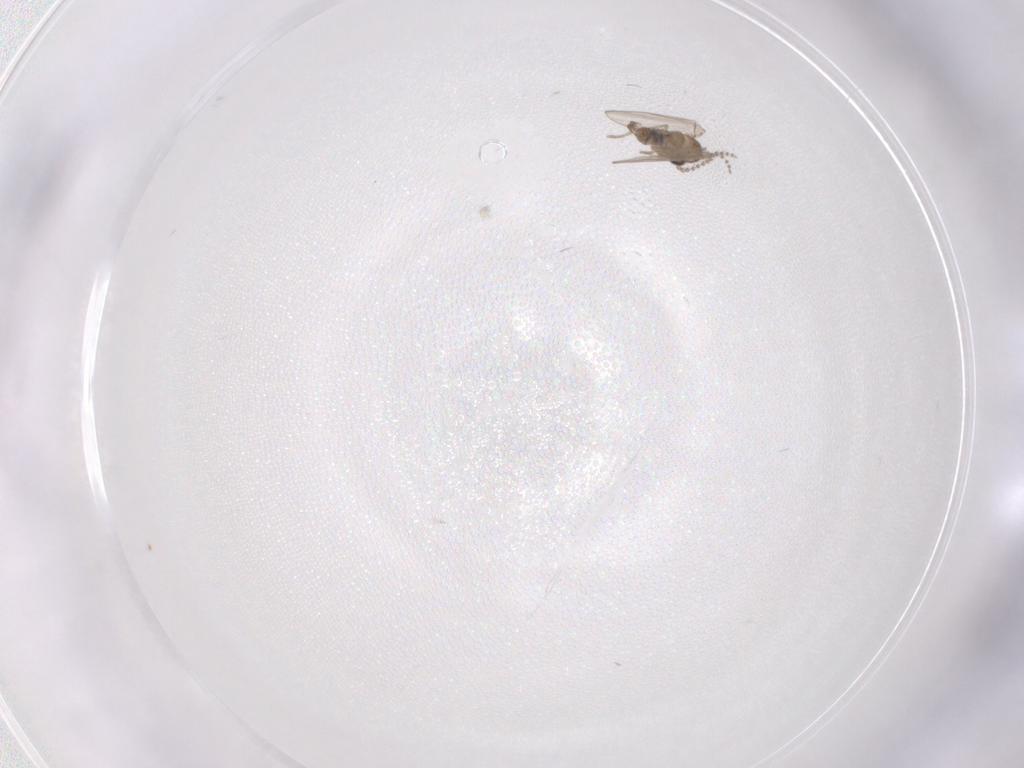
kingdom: Animalia
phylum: Arthropoda
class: Insecta
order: Diptera
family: Psychodidae
